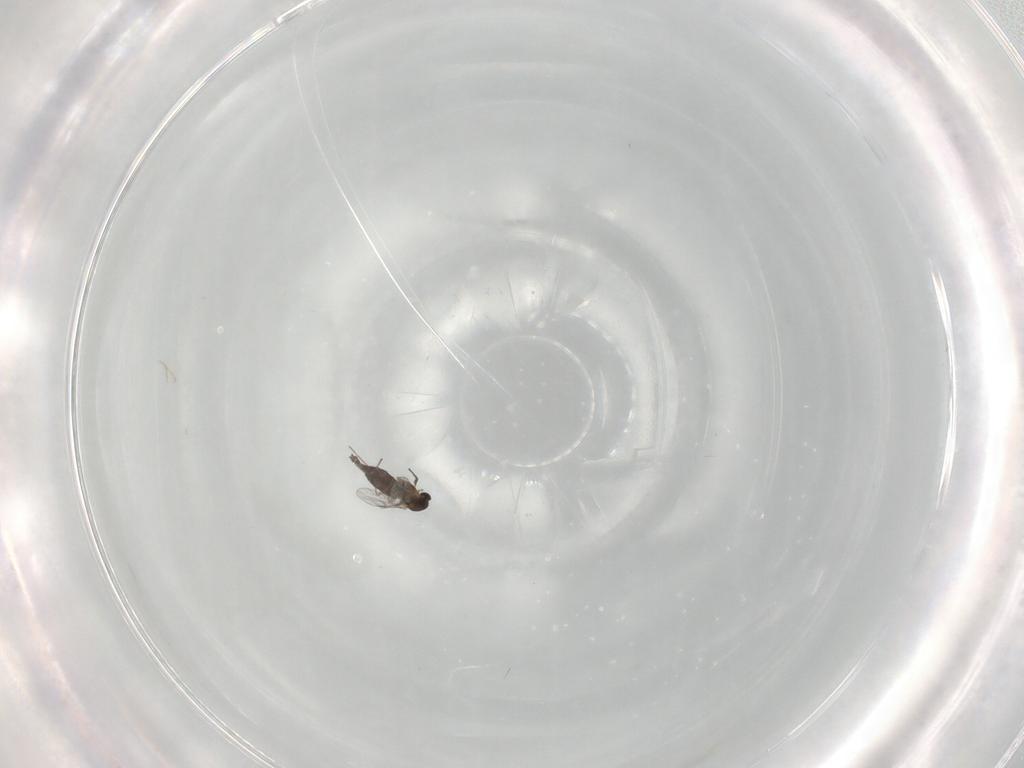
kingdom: Animalia
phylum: Arthropoda
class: Insecta
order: Diptera
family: Chironomidae
